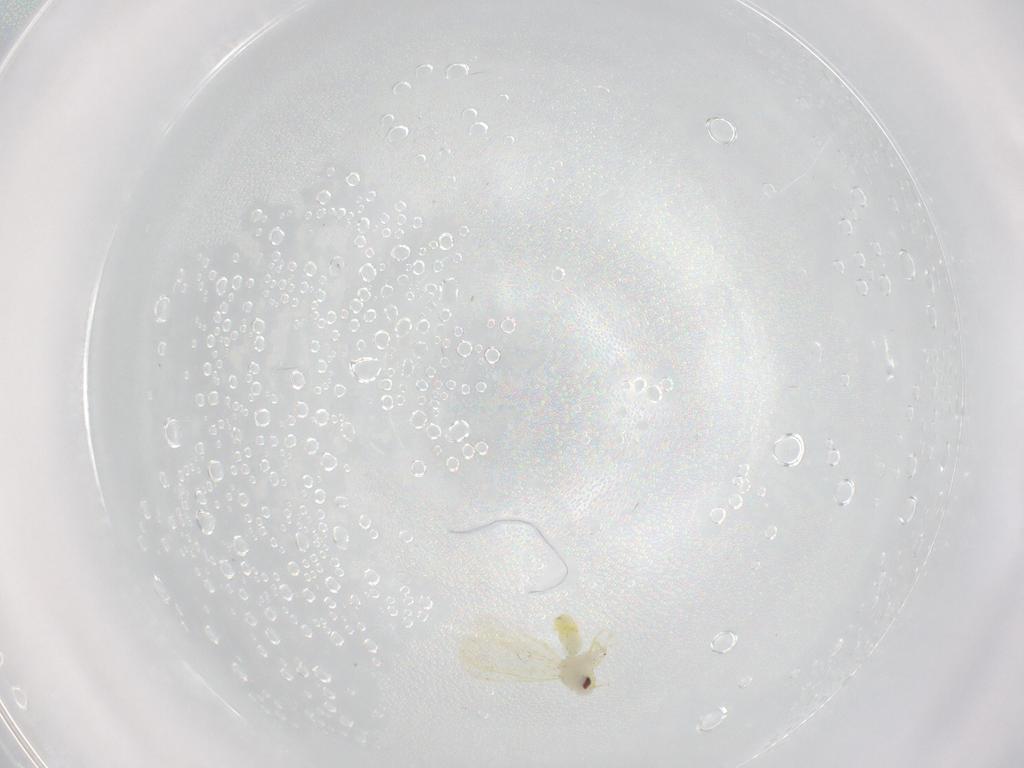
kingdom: Animalia
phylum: Arthropoda
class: Insecta
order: Hemiptera
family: Aleyrodidae
